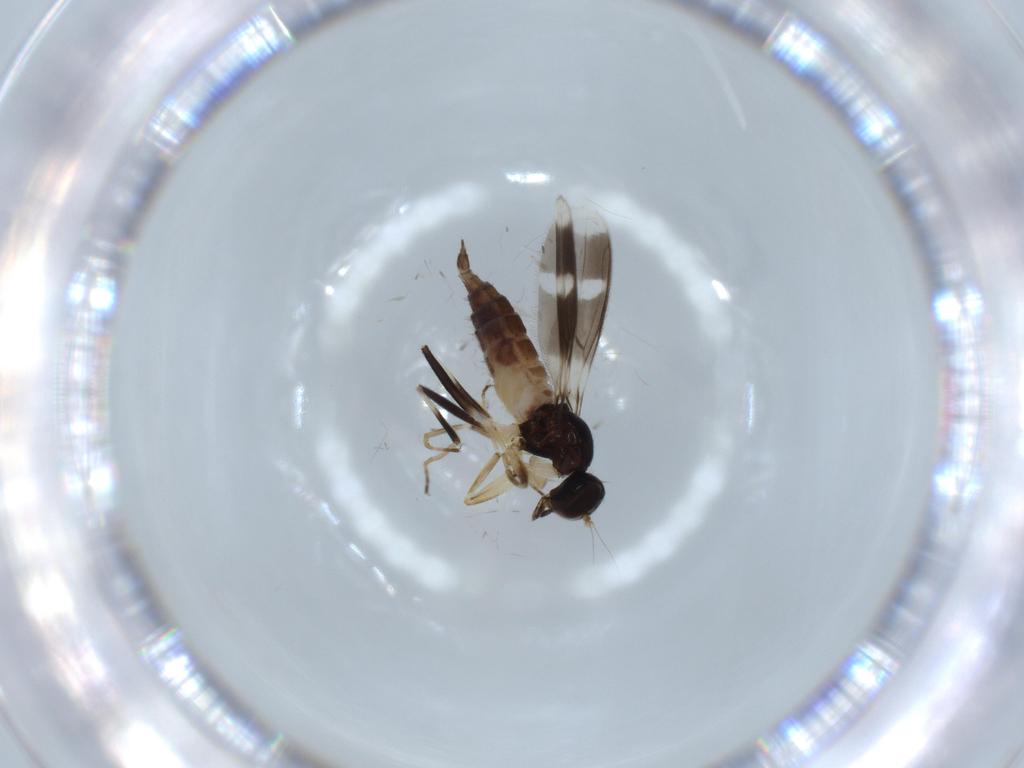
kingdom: Animalia
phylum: Arthropoda
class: Insecta
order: Diptera
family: Hybotidae
